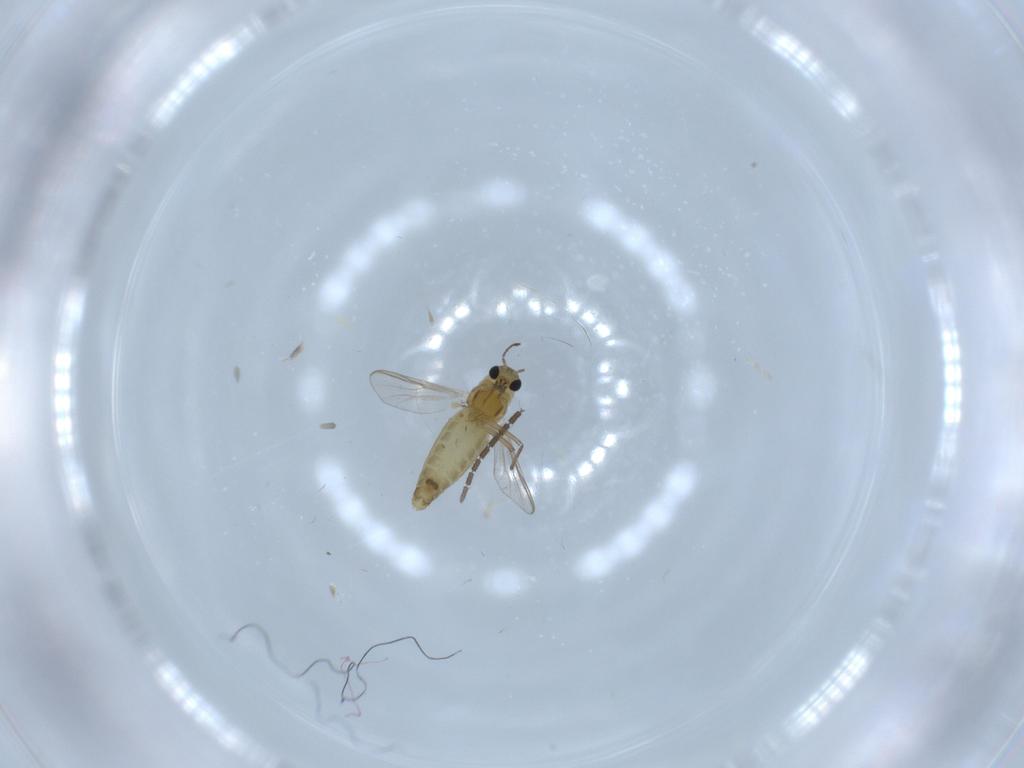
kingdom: Animalia
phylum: Arthropoda
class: Insecta
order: Diptera
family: Chironomidae
